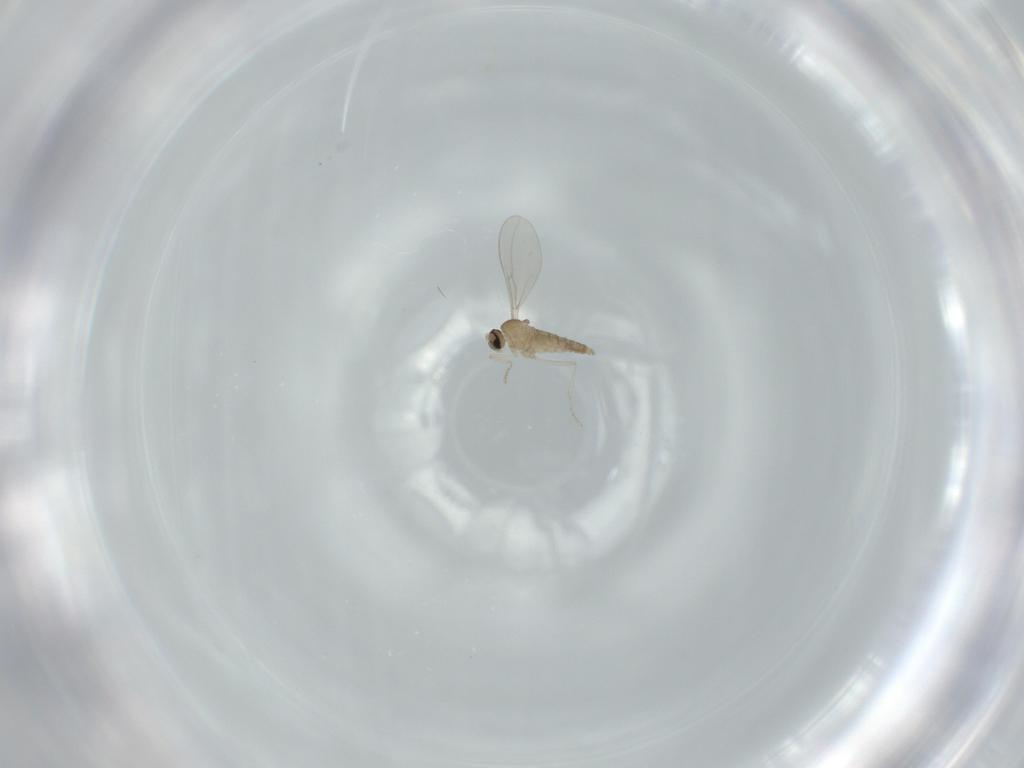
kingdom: Animalia
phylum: Arthropoda
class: Insecta
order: Diptera
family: Cecidomyiidae
